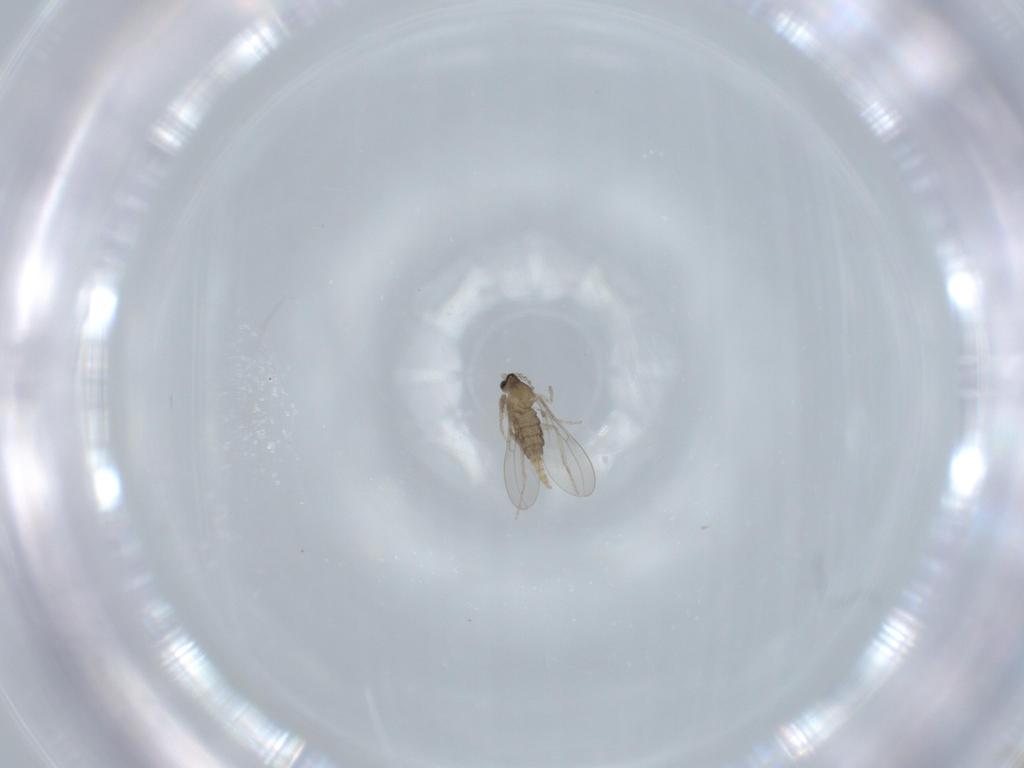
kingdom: Animalia
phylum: Arthropoda
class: Insecta
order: Diptera
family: Cecidomyiidae
